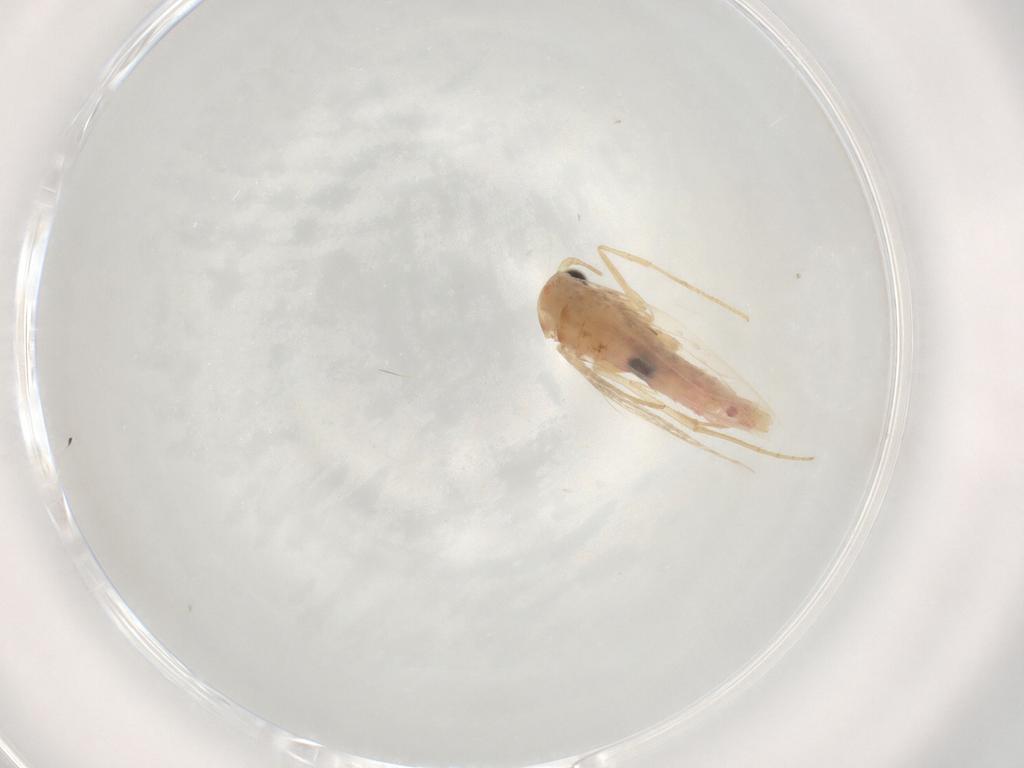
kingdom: Animalia
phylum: Arthropoda
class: Insecta
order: Lepidoptera
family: Bedelliidae
